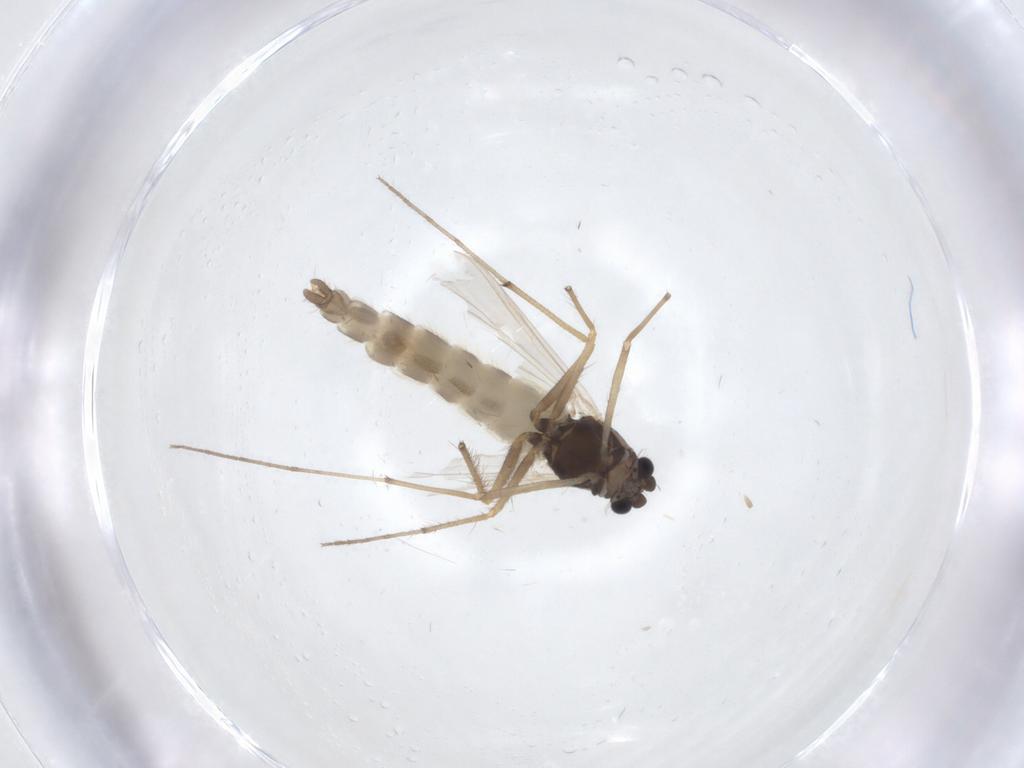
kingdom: Animalia
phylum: Arthropoda
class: Insecta
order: Diptera
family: Chironomidae
